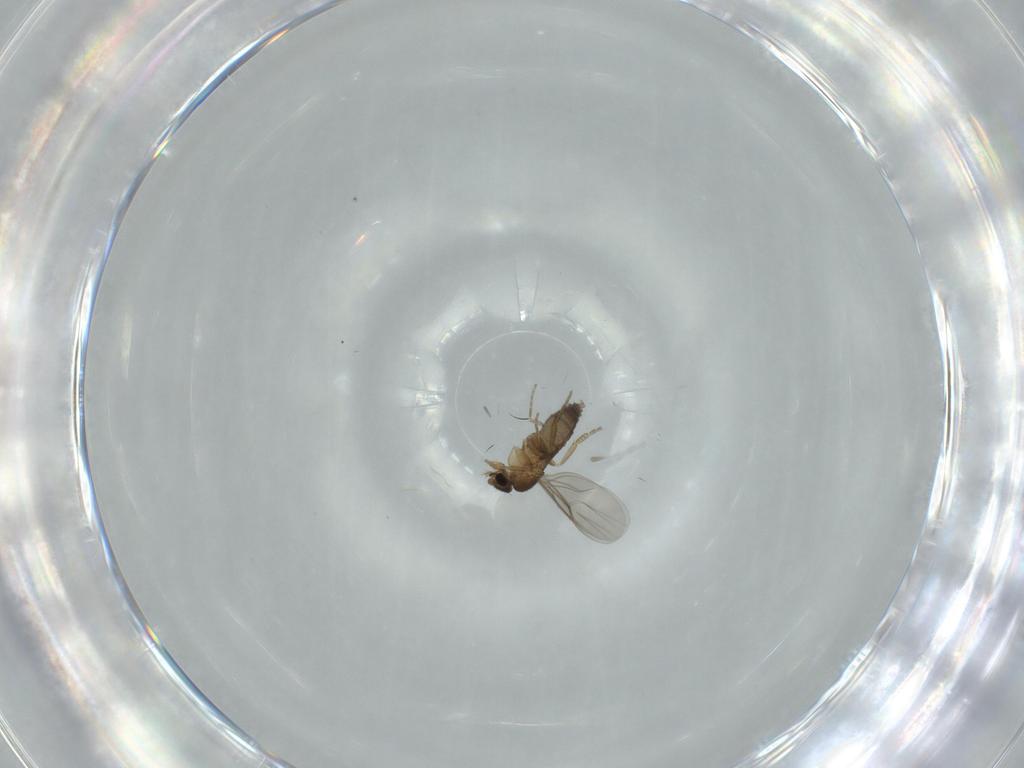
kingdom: Animalia
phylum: Arthropoda
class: Insecta
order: Diptera
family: Phoridae
